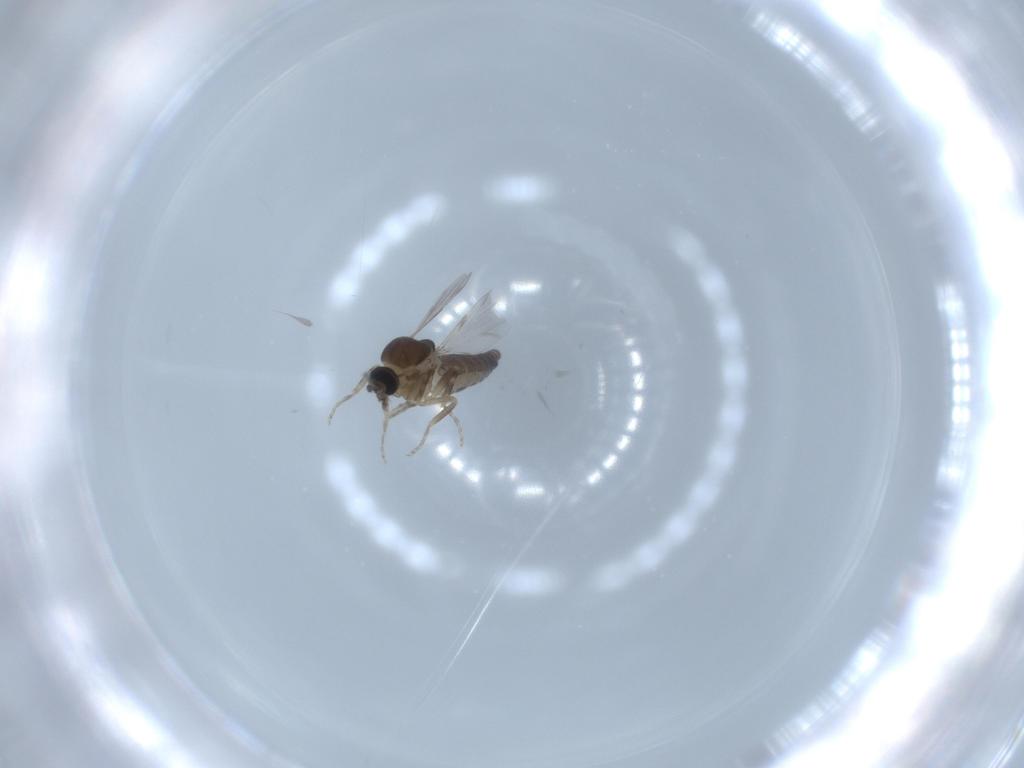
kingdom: Animalia
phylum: Arthropoda
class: Insecta
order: Diptera
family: Ceratopogonidae
